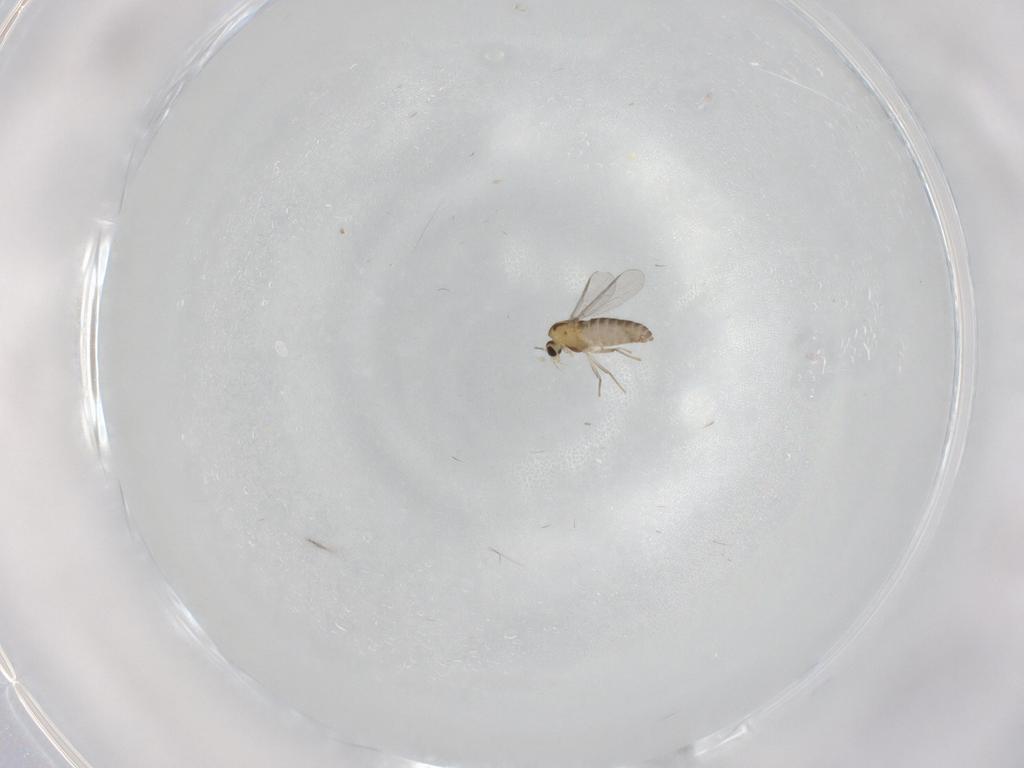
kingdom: Animalia
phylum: Arthropoda
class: Insecta
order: Diptera
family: Chironomidae
